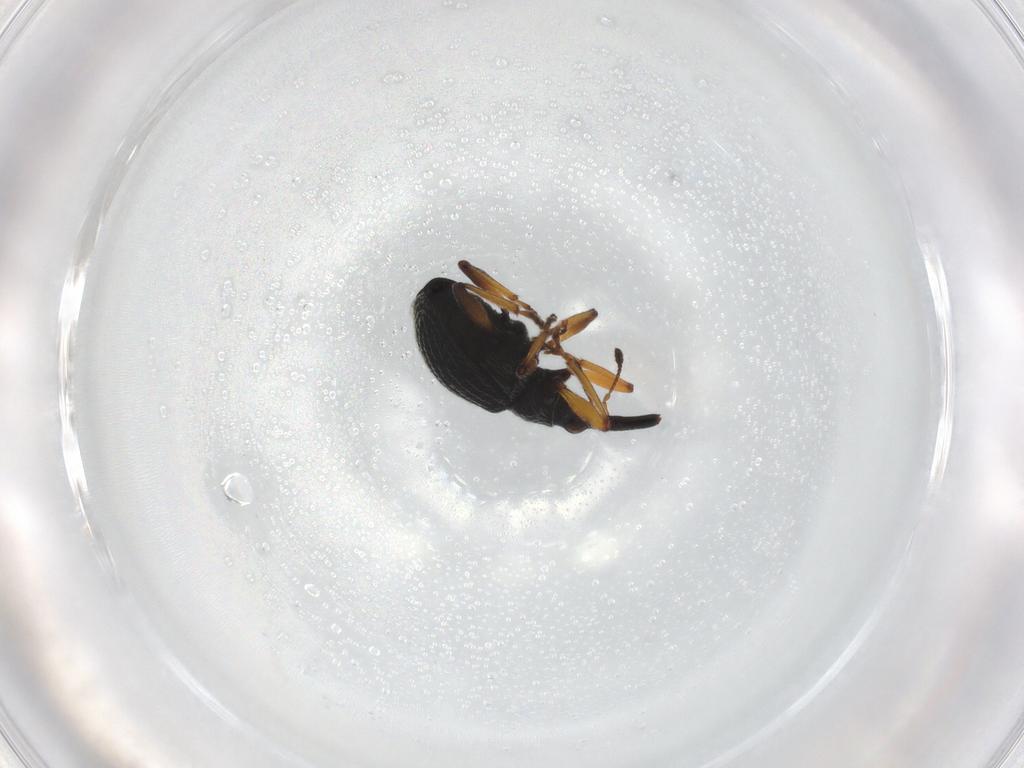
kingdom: Animalia
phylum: Arthropoda
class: Insecta
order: Coleoptera
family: Brentidae
